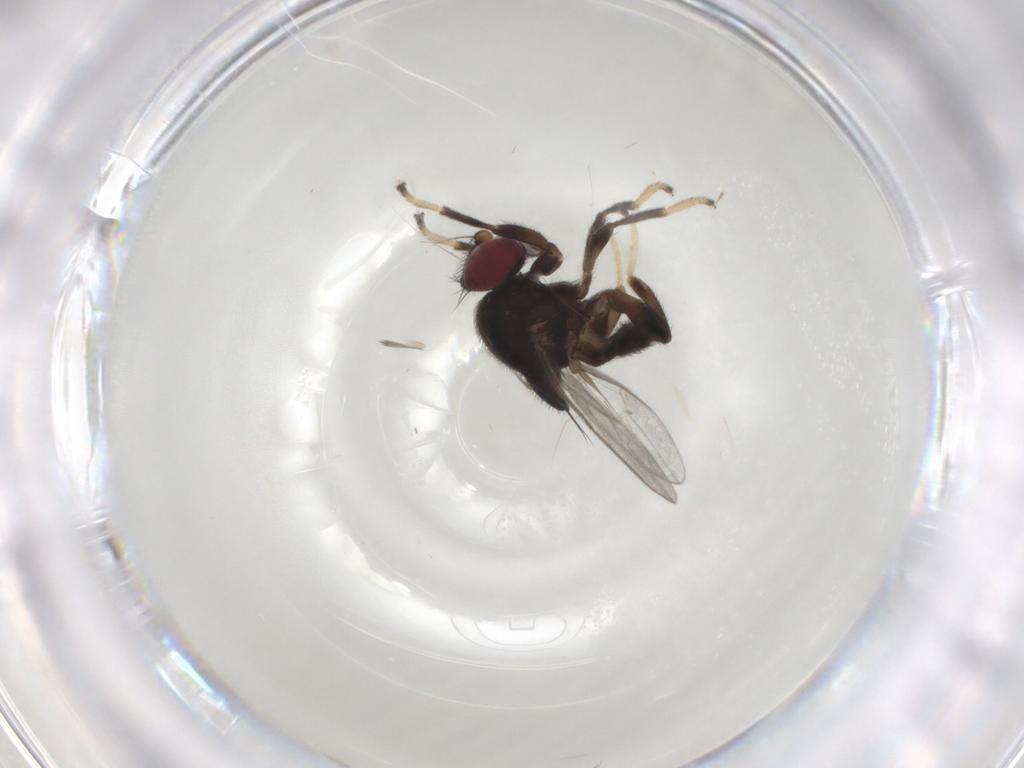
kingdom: Animalia
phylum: Arthropoda
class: Insecta
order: Diptera
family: Chloropidae
